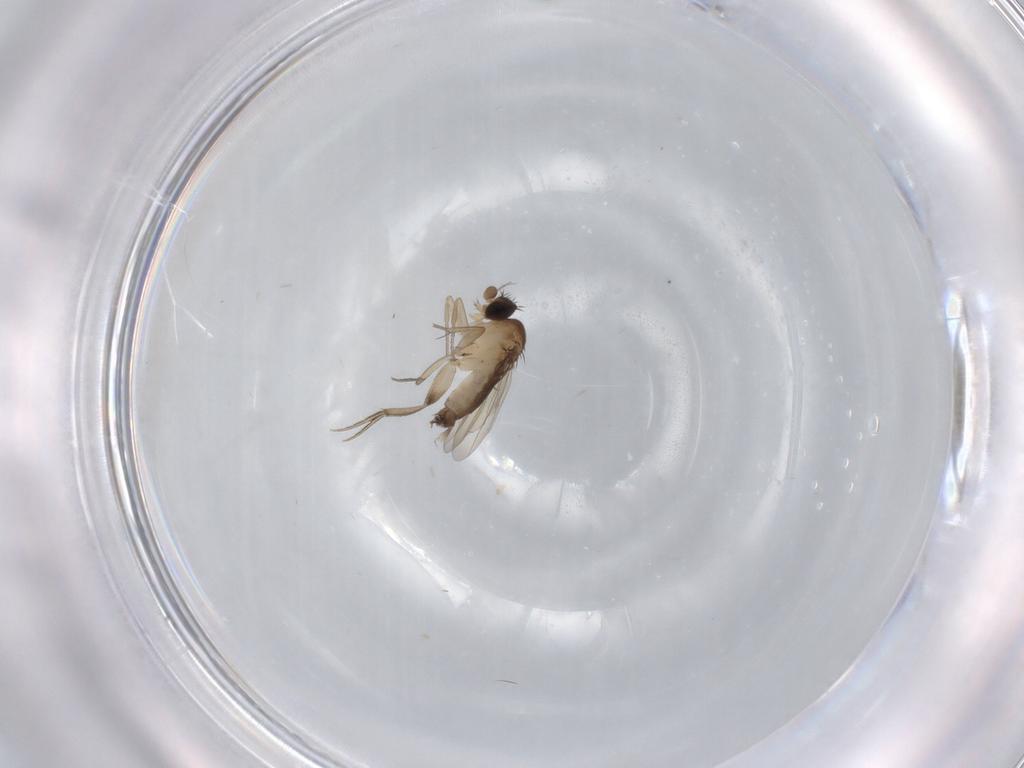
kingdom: Animalia
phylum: Arthropoda
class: Insecta
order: Diptera
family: Phoridae
